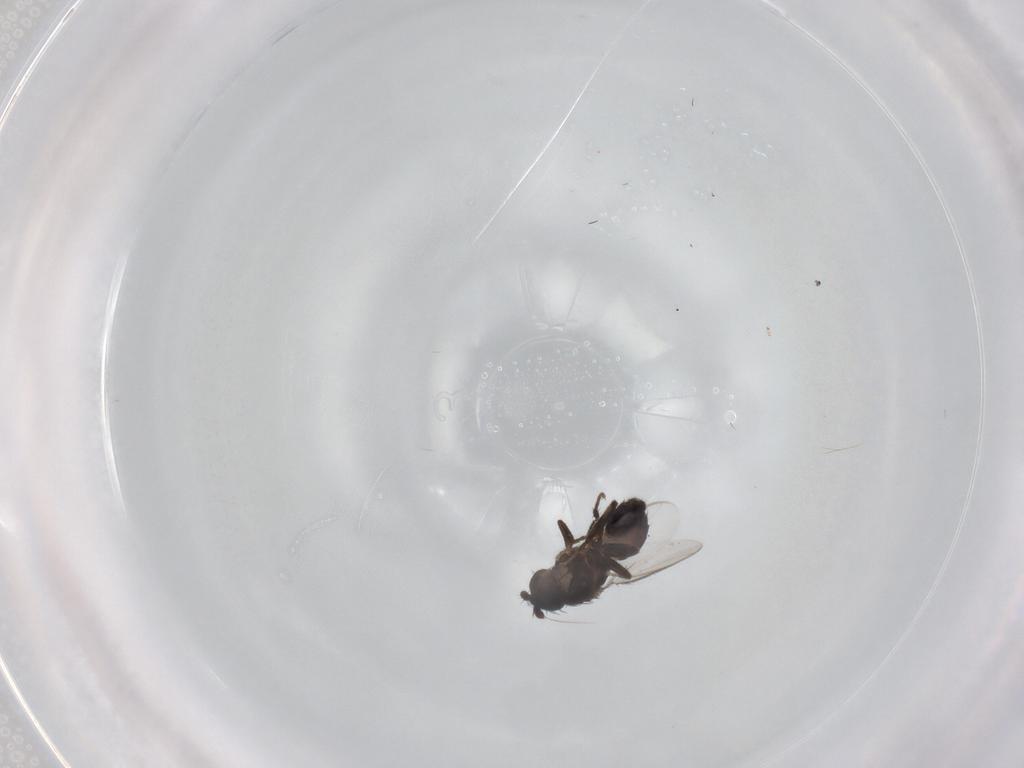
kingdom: Animalia
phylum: Arthropoda
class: Insecta
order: Diptera
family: Sphaeroceridae
